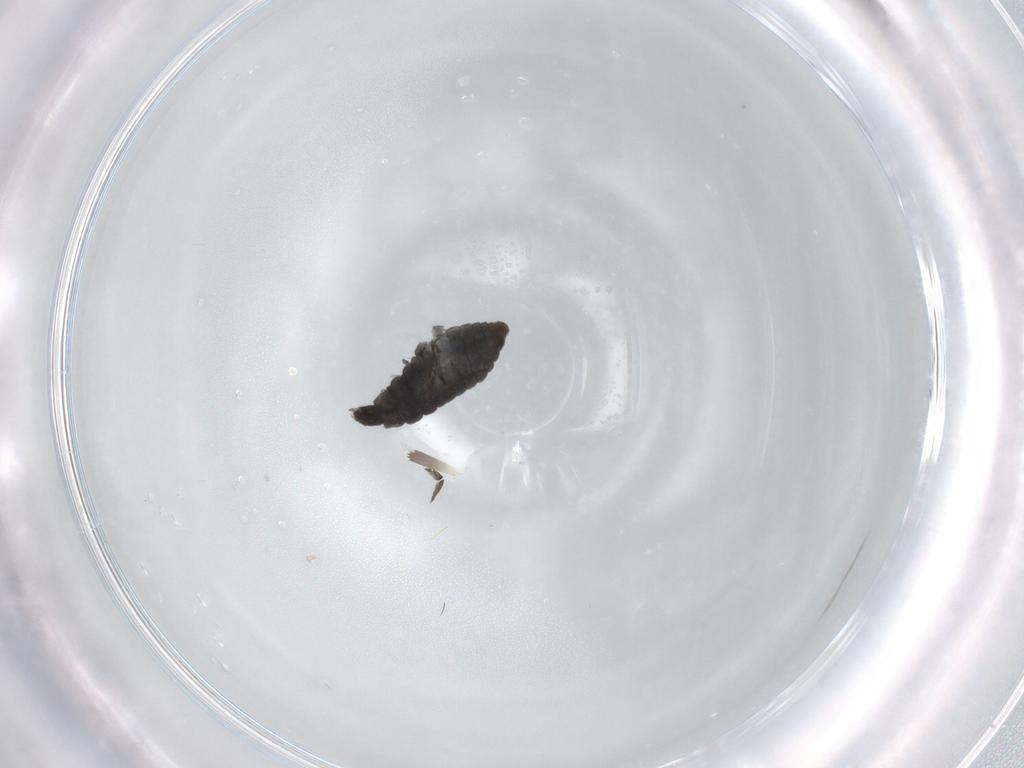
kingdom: Animalia
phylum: Arthropoda
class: Insecta
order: Coleoptera
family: Coccinellidae
